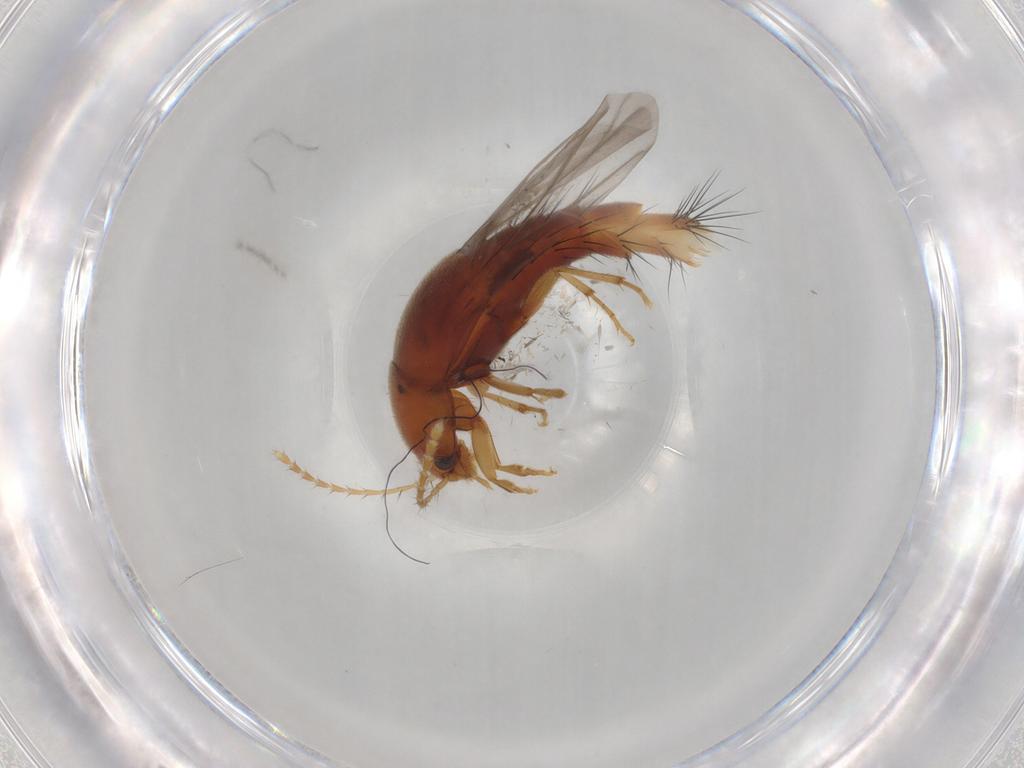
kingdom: Animalia
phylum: Arthropoda
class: Insecta
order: Coleoptera
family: Staphylinidae
